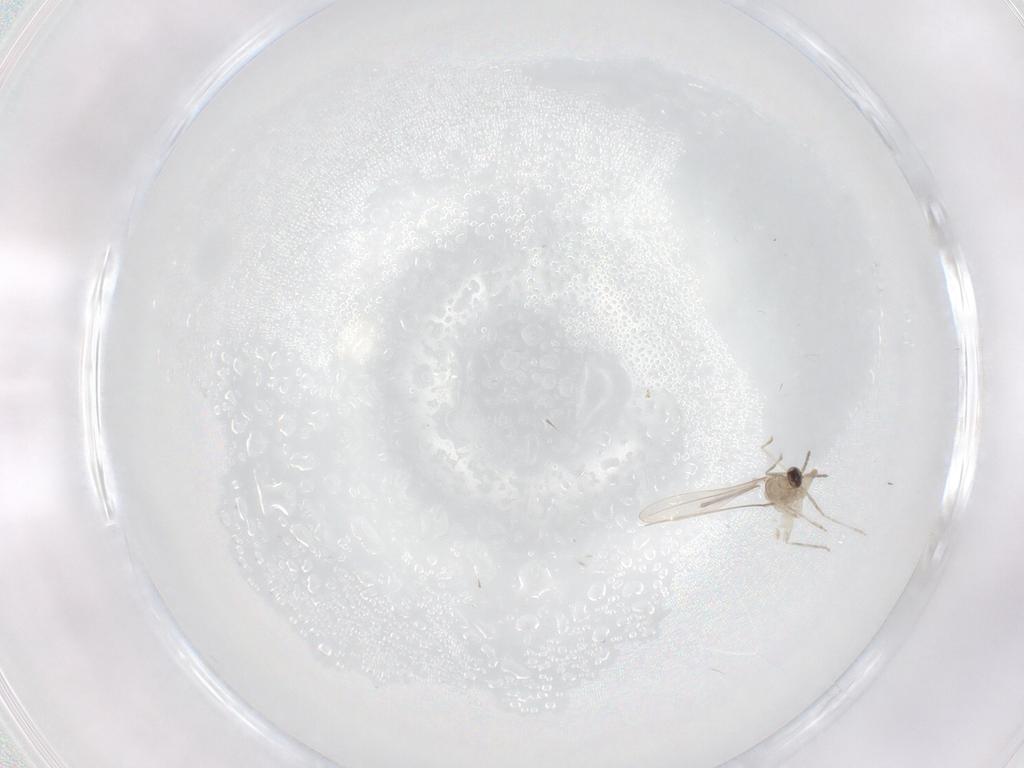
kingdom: Animalia
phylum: Arthropoda
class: Insecta
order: Diptera
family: Cecidomyiidae
